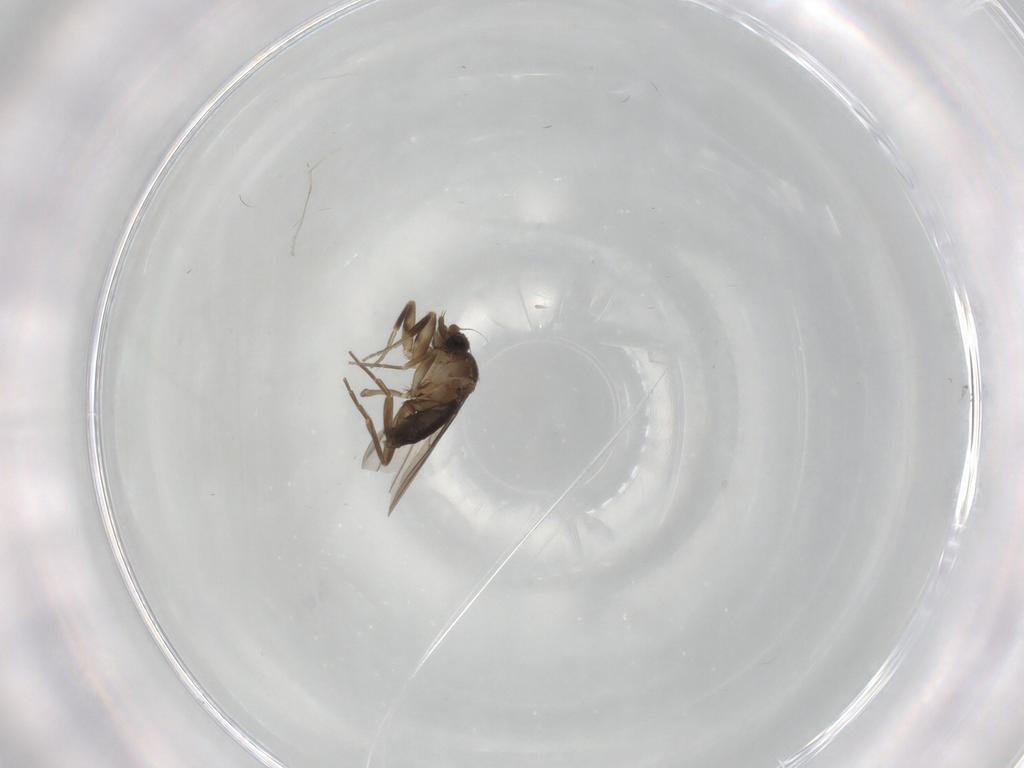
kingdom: Animalia
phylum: Arthropoda
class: Insecta
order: Diptera
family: Phoridae
